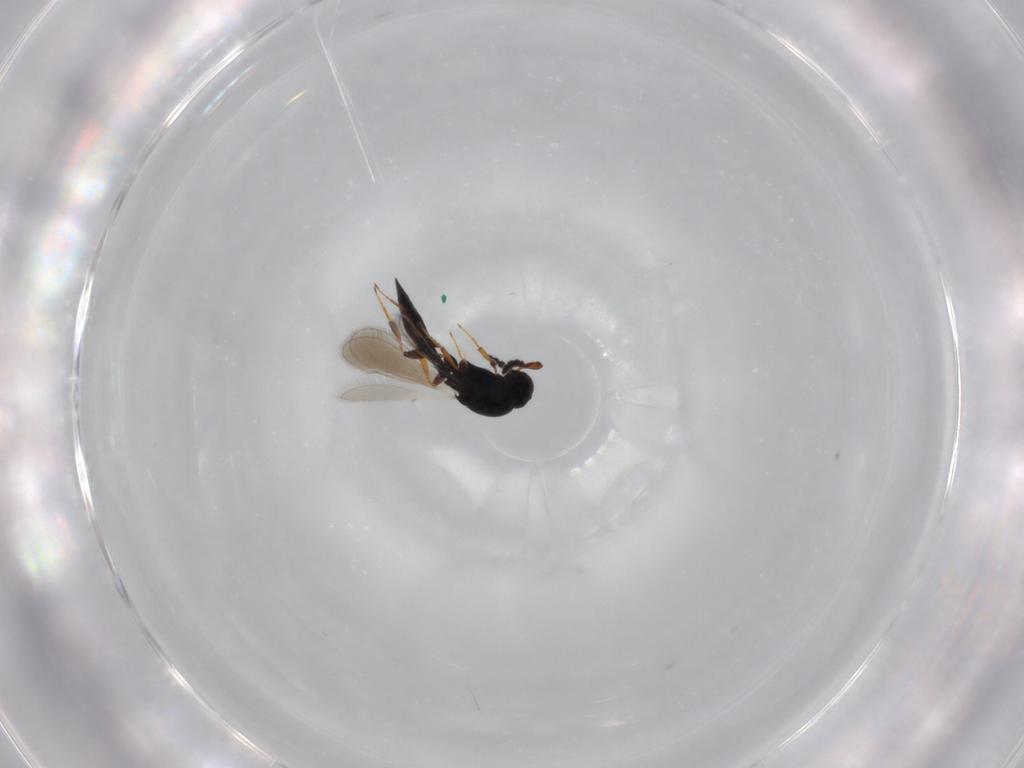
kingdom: Animalia
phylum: Arthropoda
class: Insecta
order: Hymenoptera
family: Platygastridae
